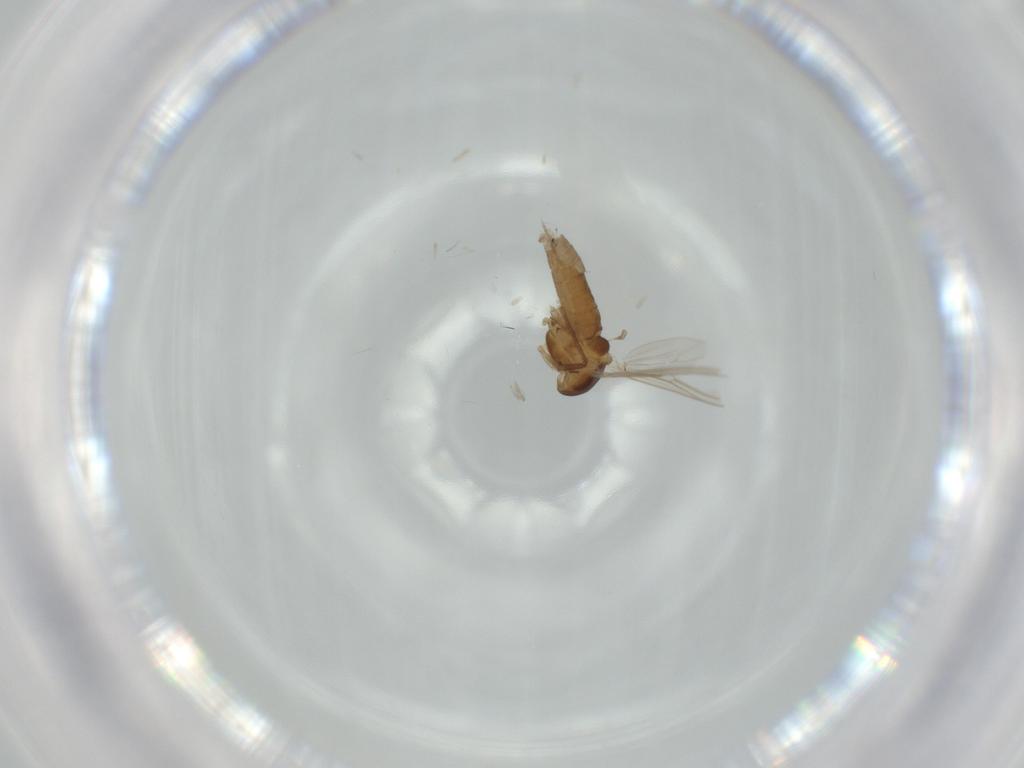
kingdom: Animalia
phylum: Arthropoda
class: Insecta
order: Diptera
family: Chironomidae
